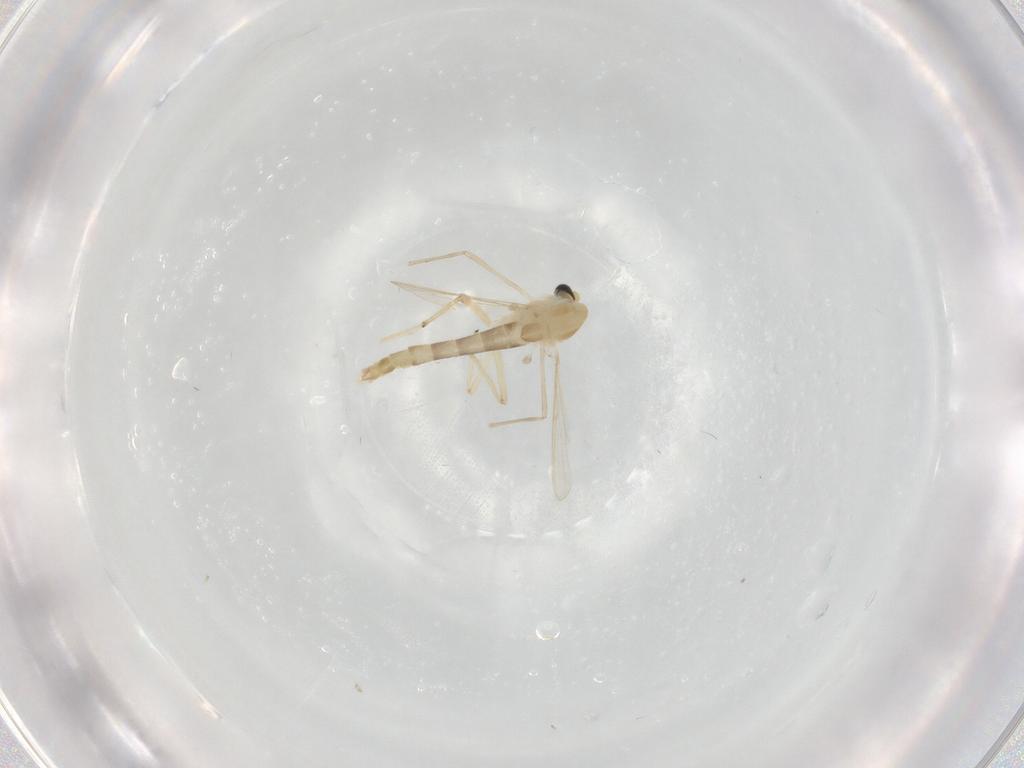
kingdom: Animalia
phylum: Arthropoda
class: Insecta
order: Diptera
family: Chironomidae
